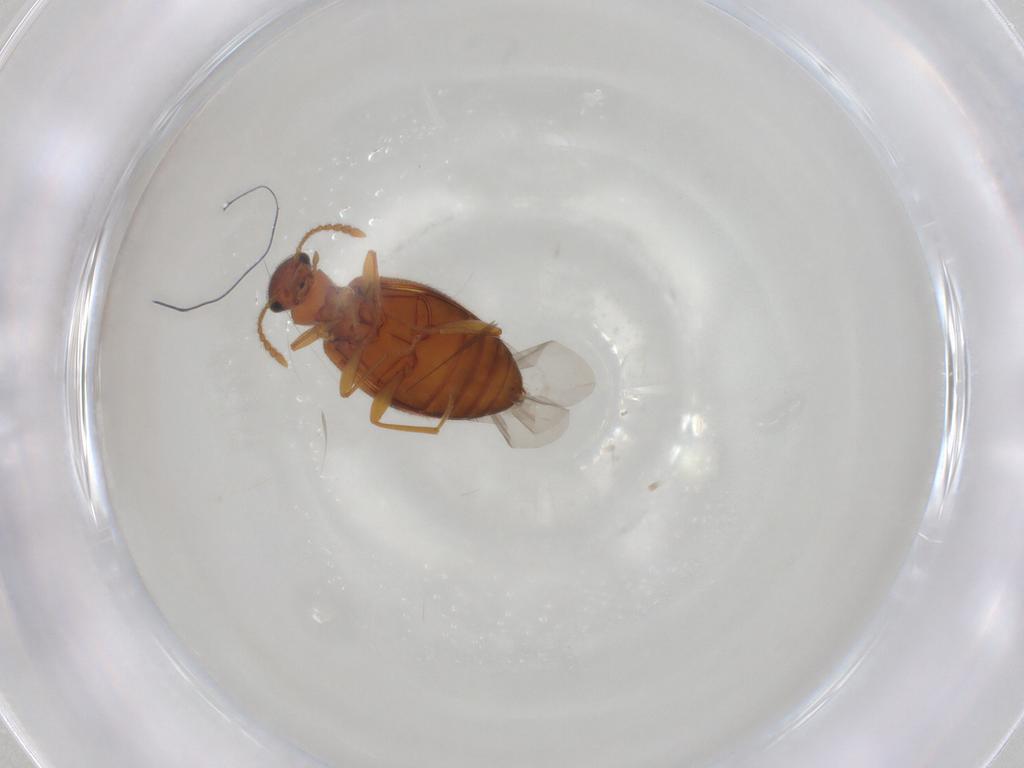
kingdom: Animalia
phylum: Arthropoda
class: Insecta
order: Coleoptera
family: Anthicidae
